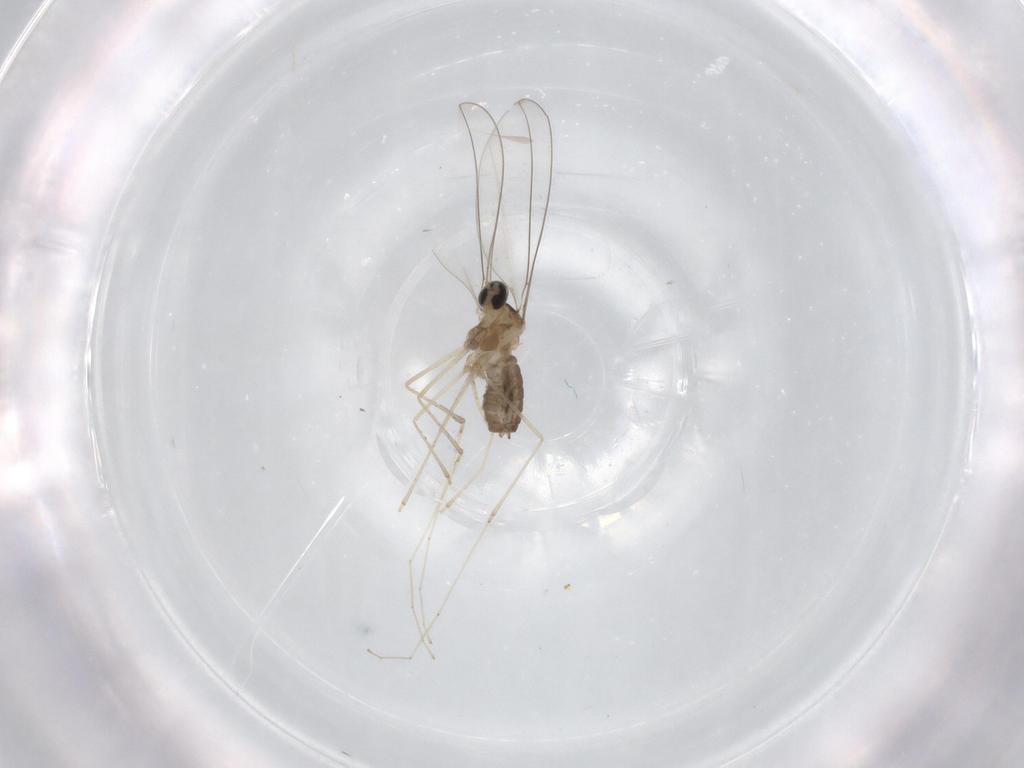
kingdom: Animalia
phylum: Arthropoda
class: Insecta
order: Diptera
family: Cecidomyiidae
